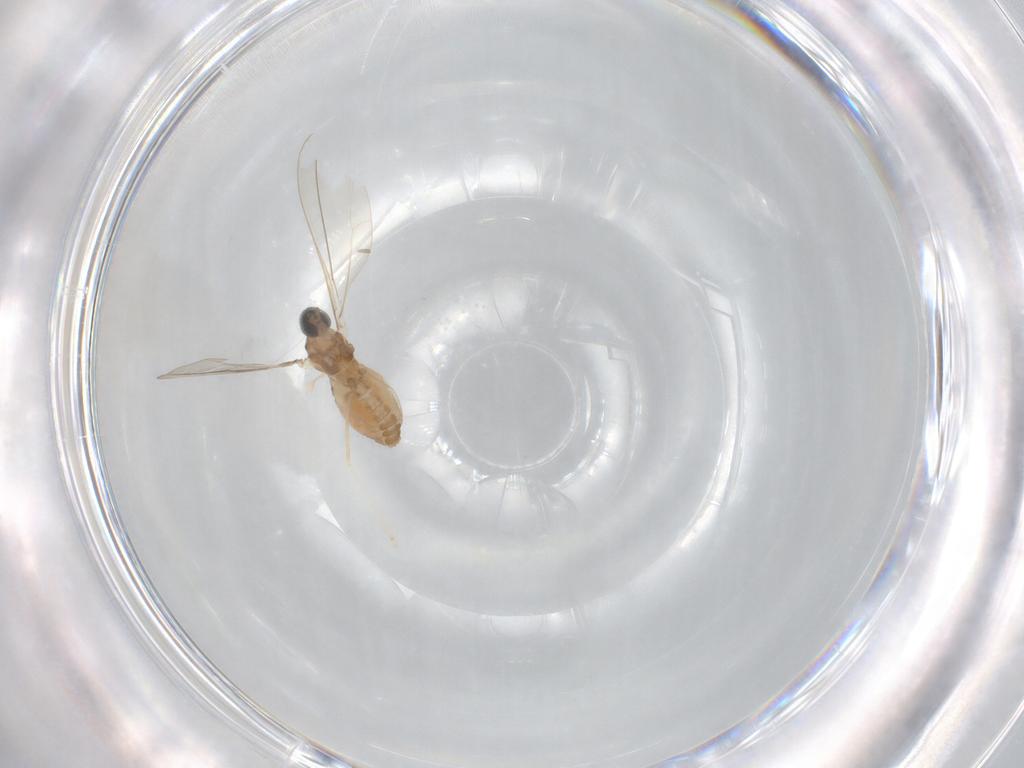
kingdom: Animalia
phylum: Arthropoda
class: Insecta
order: Diptera
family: Cecidomyiidae
